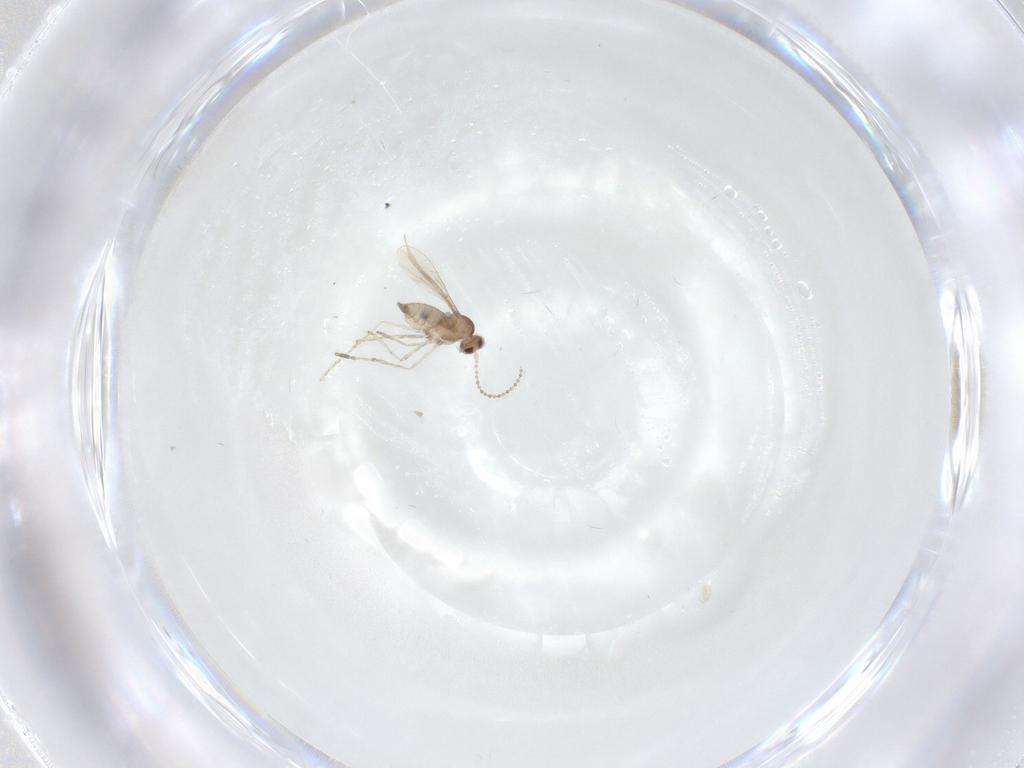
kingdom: Animalia
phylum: Arthropoda
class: Insecta
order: Diptera
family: Cecidomyiidae
